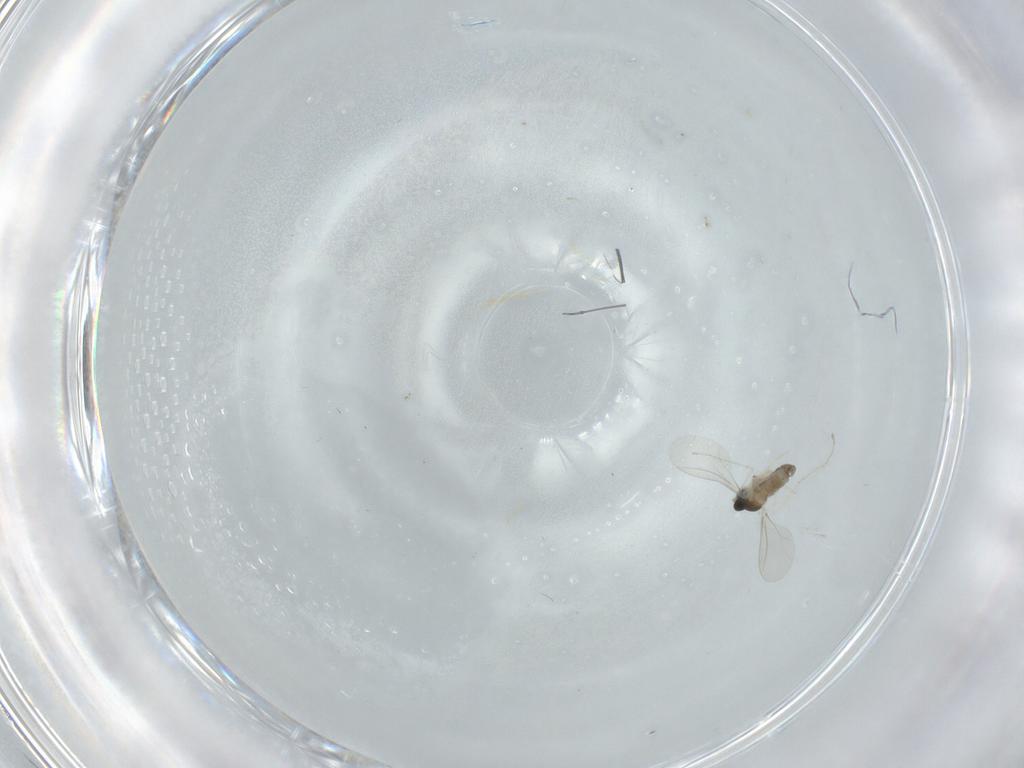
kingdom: Animalia
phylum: Arthropoda
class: Insecta
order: Diptera
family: Cecidomyiidae
